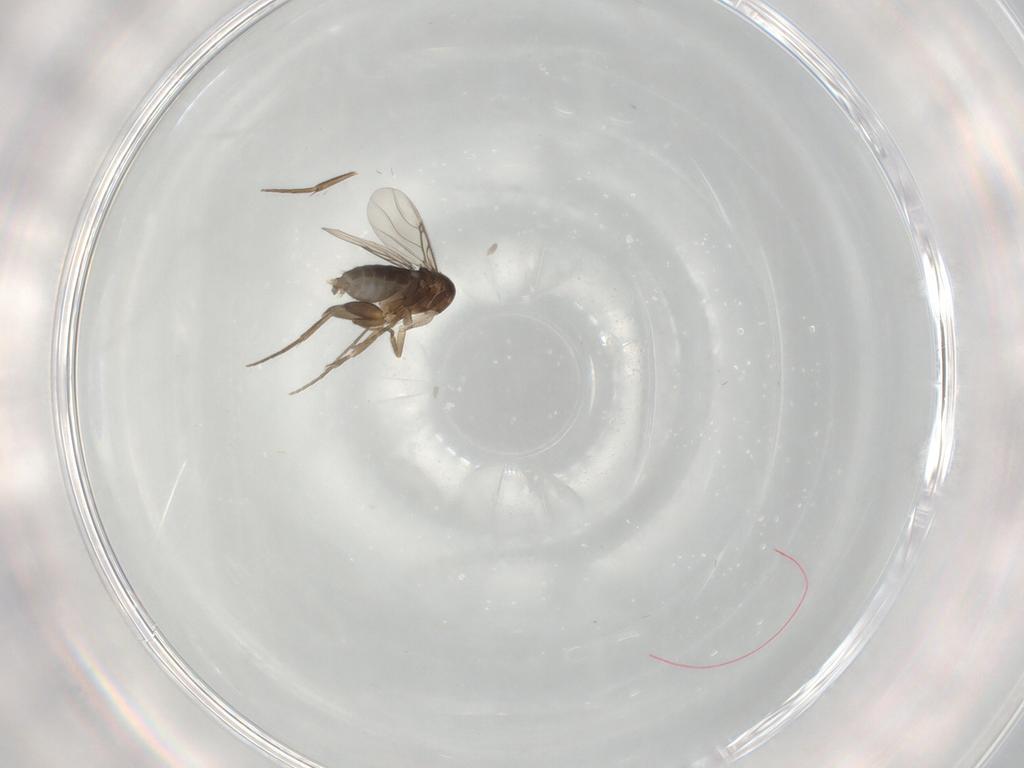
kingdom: Animalia
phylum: Arthropoda
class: Insecta
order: Diptera
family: Phoridae
